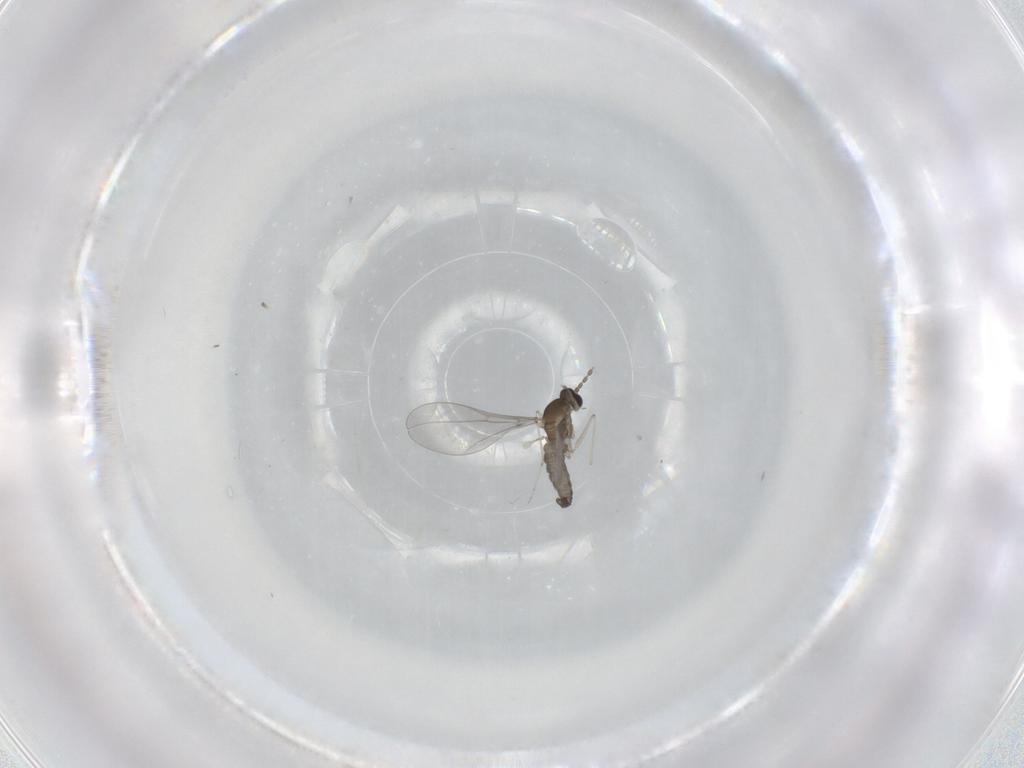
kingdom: Animalia
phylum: Arthropoda
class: Insecta
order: Diptera
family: Cecidomyiidae
